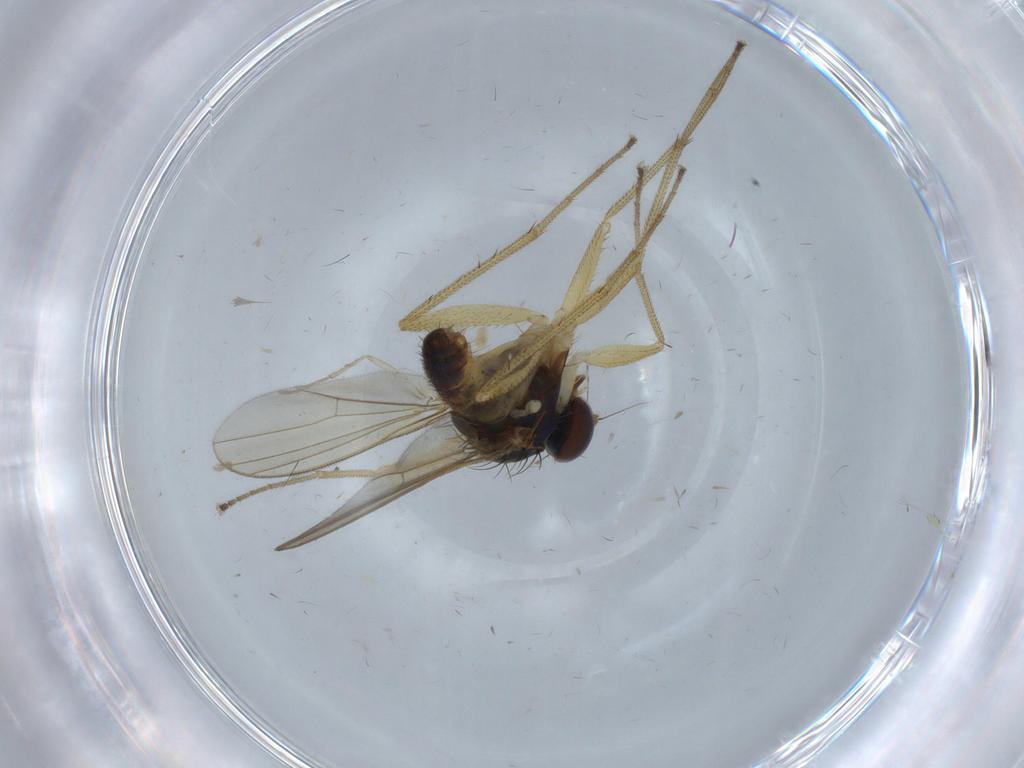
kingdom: Animalia
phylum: Arthropoda
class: Insecta
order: Diptera
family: Dolichopodidae
